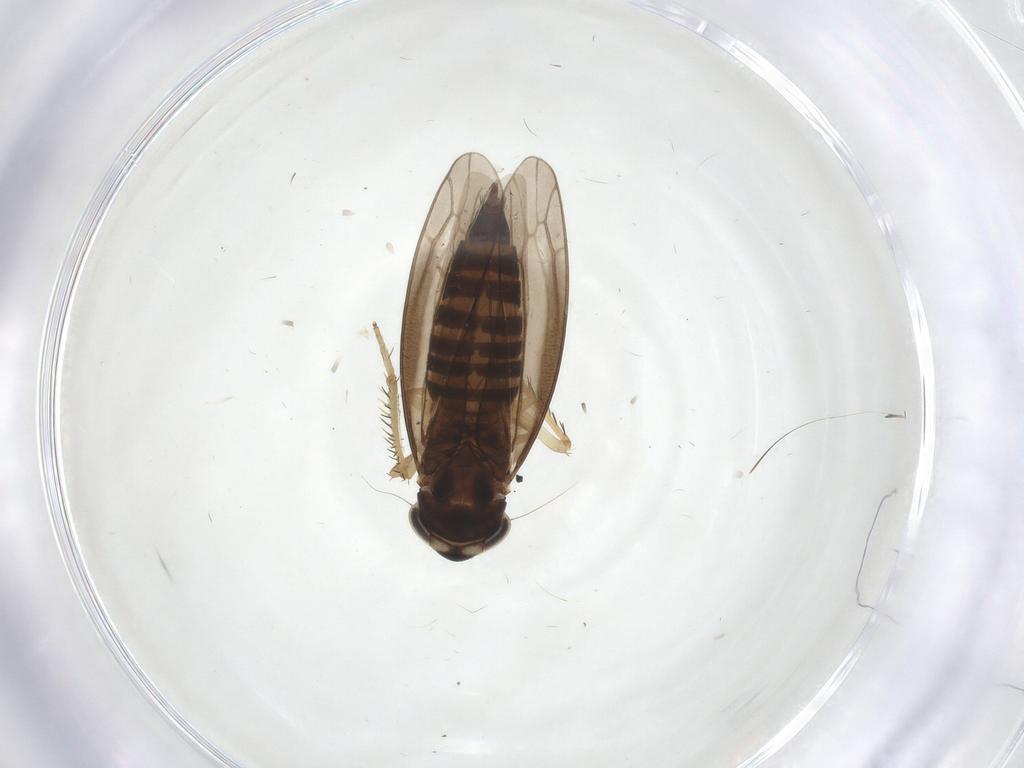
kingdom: Animalia
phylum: Arthropoda
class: Insecta
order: Hemiptera
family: Cicadellidae
